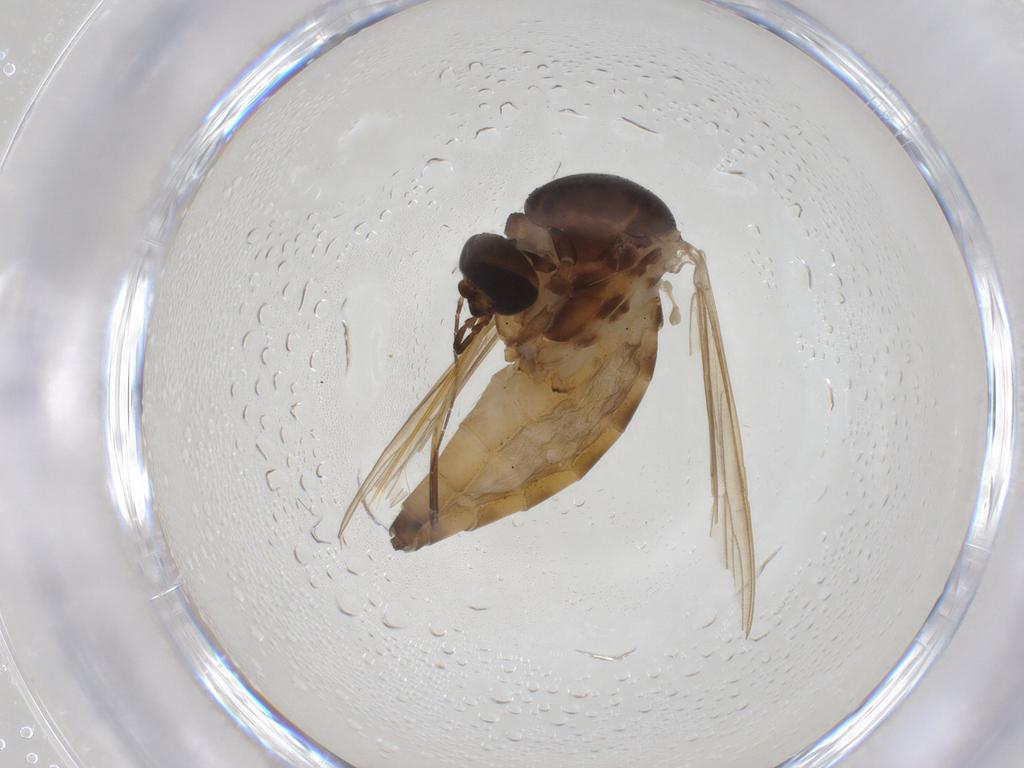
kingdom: Animalia
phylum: Arthropoda
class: Insecta
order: Diptera
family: Culicidae
